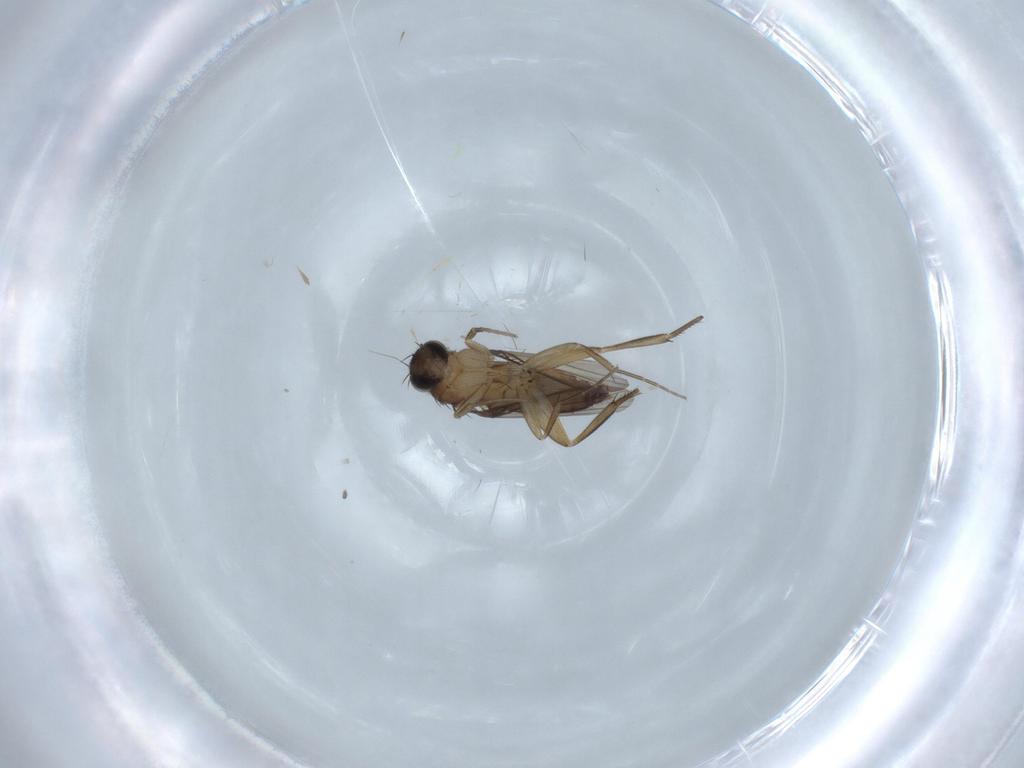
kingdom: Animalia
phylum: Arthropoda
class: Insecta
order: Diptera
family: Phoridae
